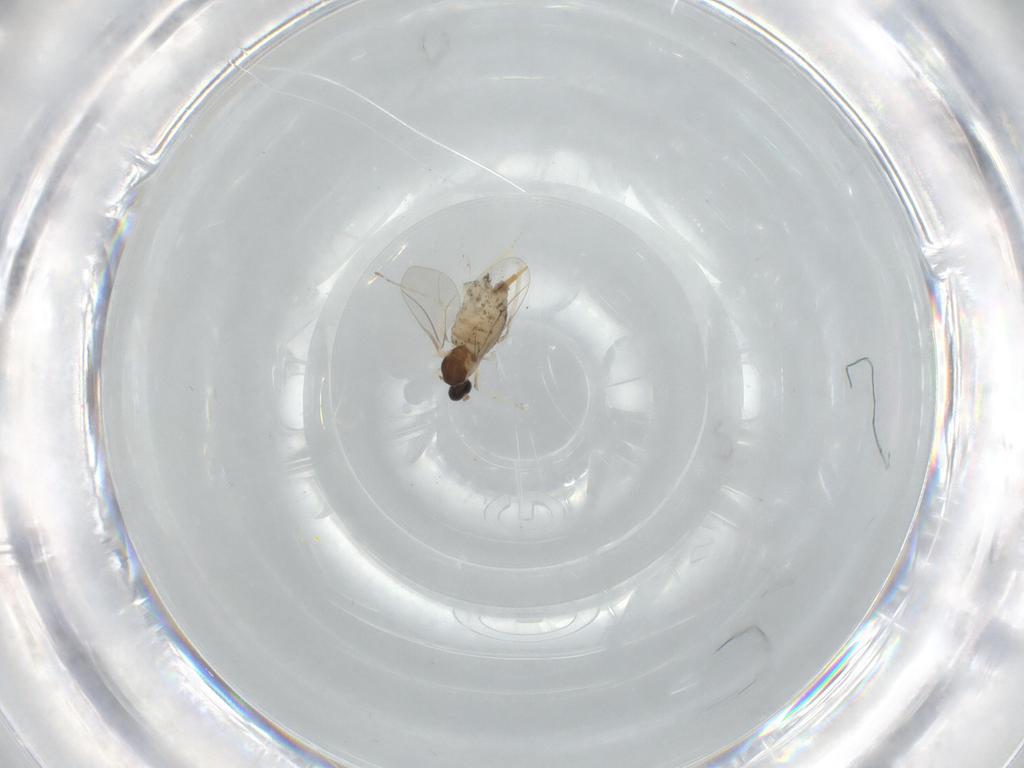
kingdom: Animalia
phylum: Arthropoda
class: Insecta
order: Diptera
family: Cecidomyiidae
